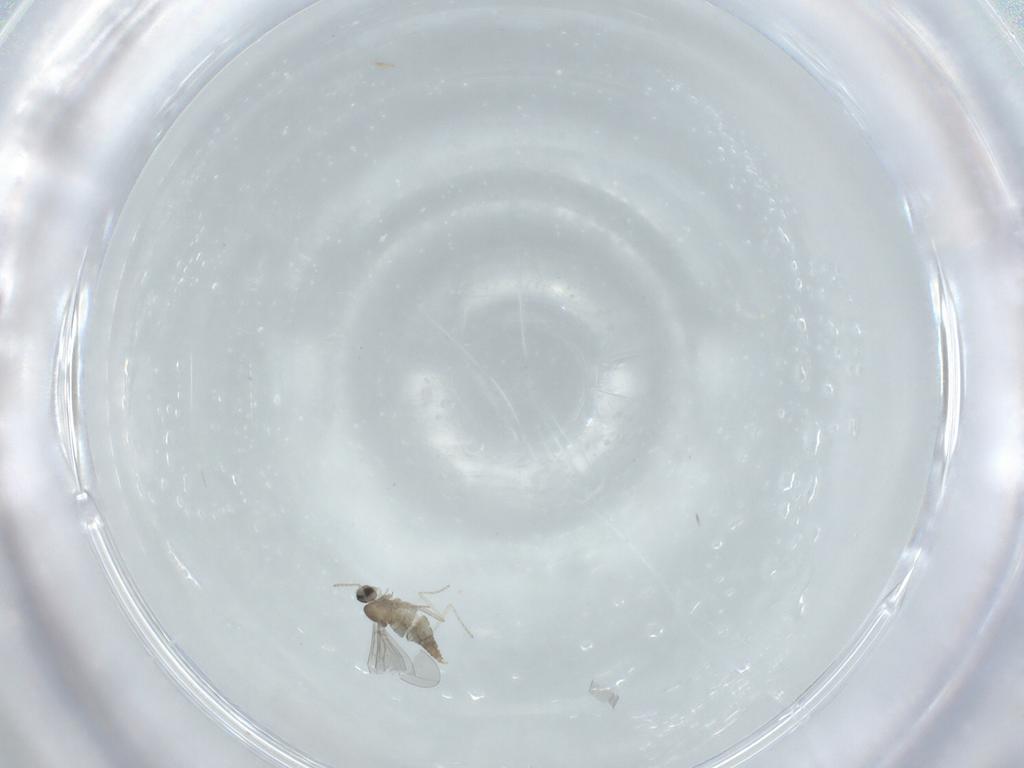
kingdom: Animalia
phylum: Arthropoda
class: Insecta
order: Diptera
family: Cecidomyiidae
